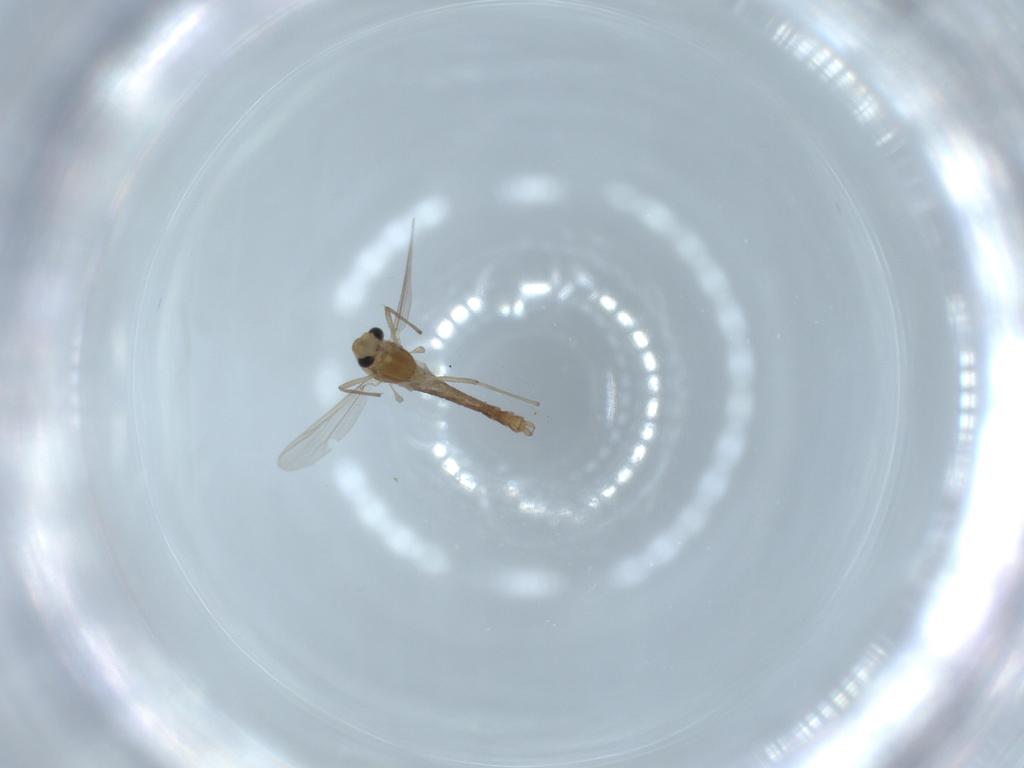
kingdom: Animalia
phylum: Arthropoda
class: Insecta
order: Diptera
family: Chironomidae
